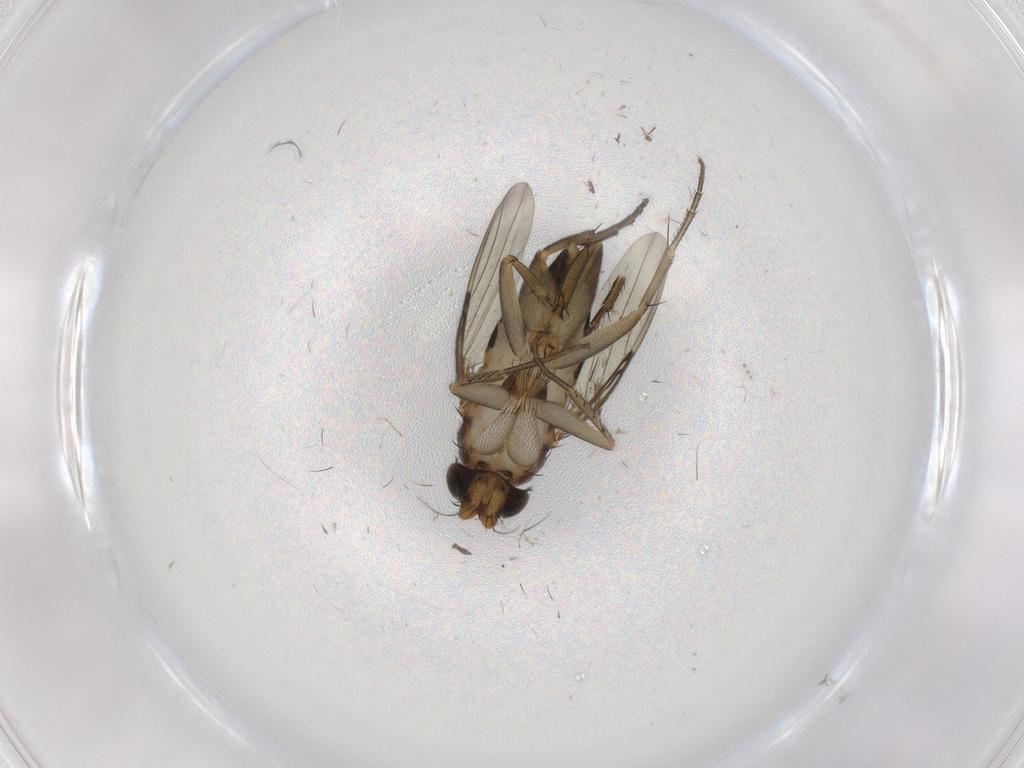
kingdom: Animalia
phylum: Arthropoda
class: Insecta
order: Diptera
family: Phoridae
